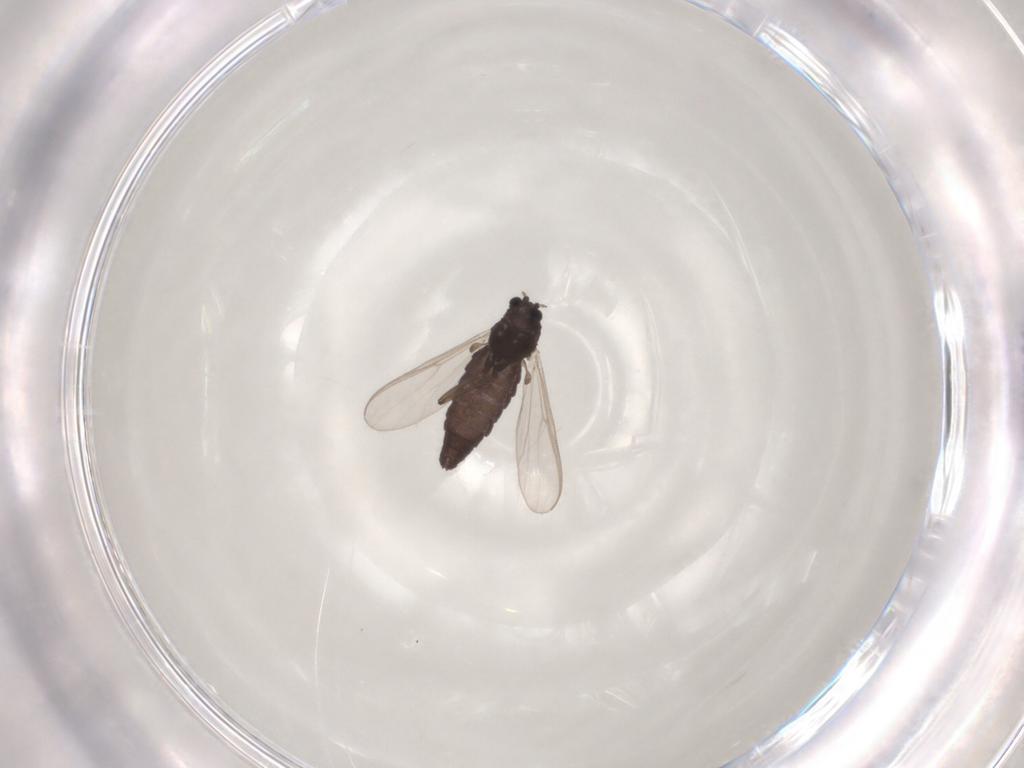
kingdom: Animalia
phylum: Arthropoda
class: Insecta
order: Diptera
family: Chironomidae
